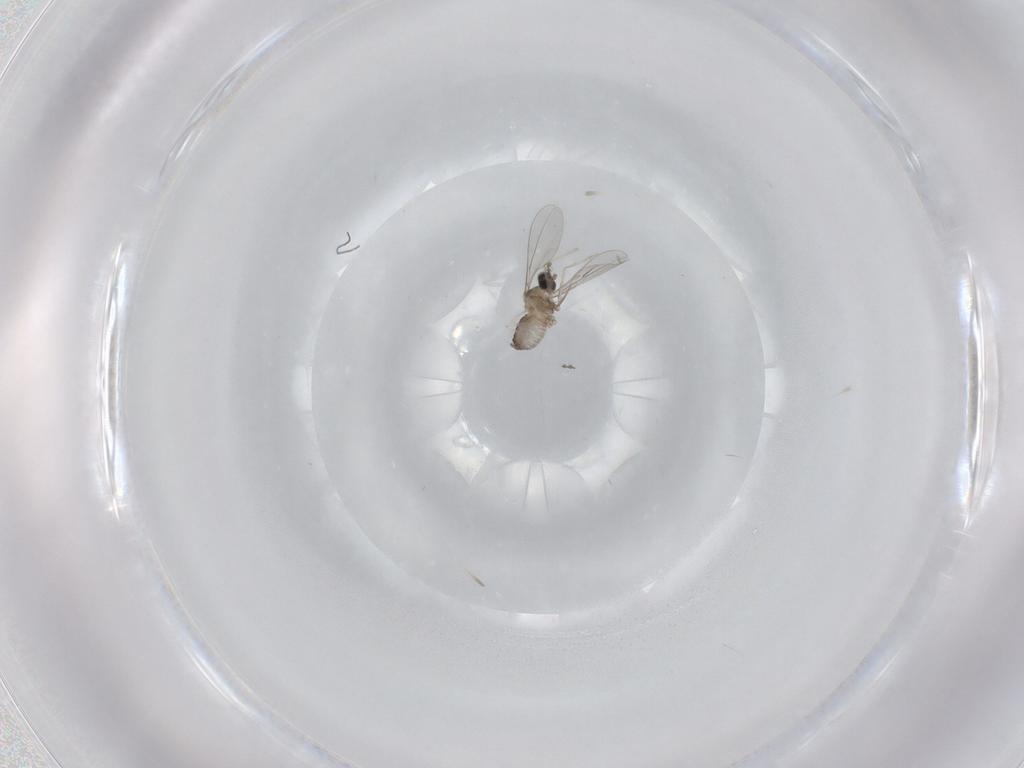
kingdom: Animalia
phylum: Arthropoda
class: Insecta
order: Diptera
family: Cecidomyiidae
